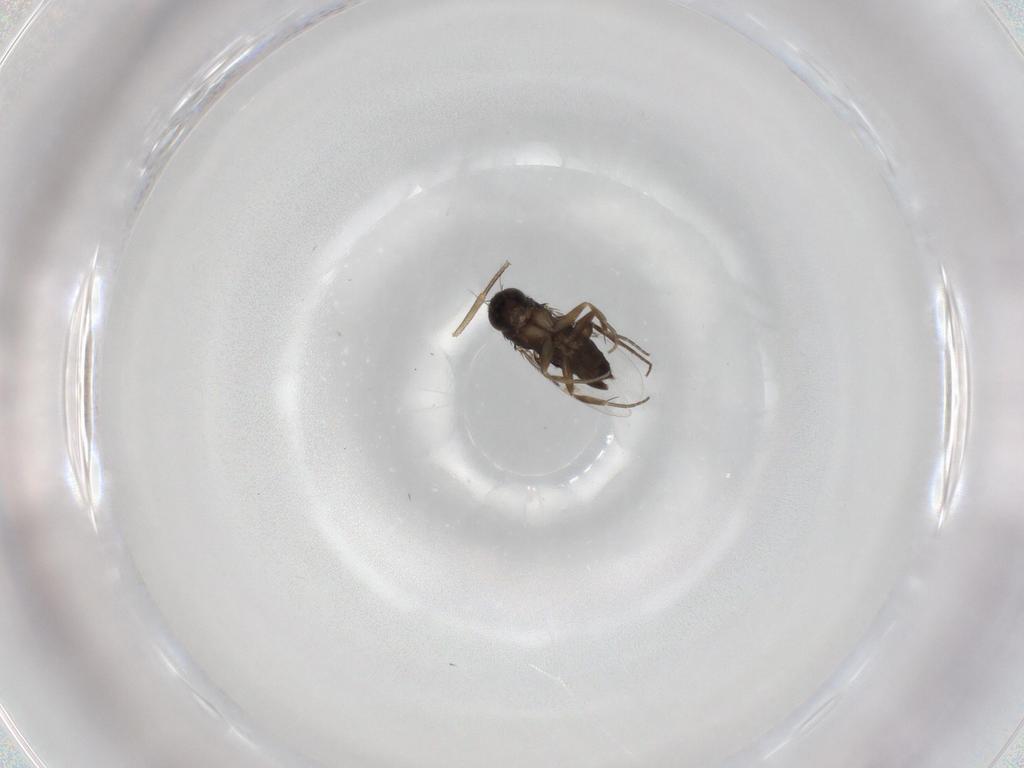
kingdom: Animalia
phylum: Arthropoda
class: Insecta
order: Diptera
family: Phoridae
